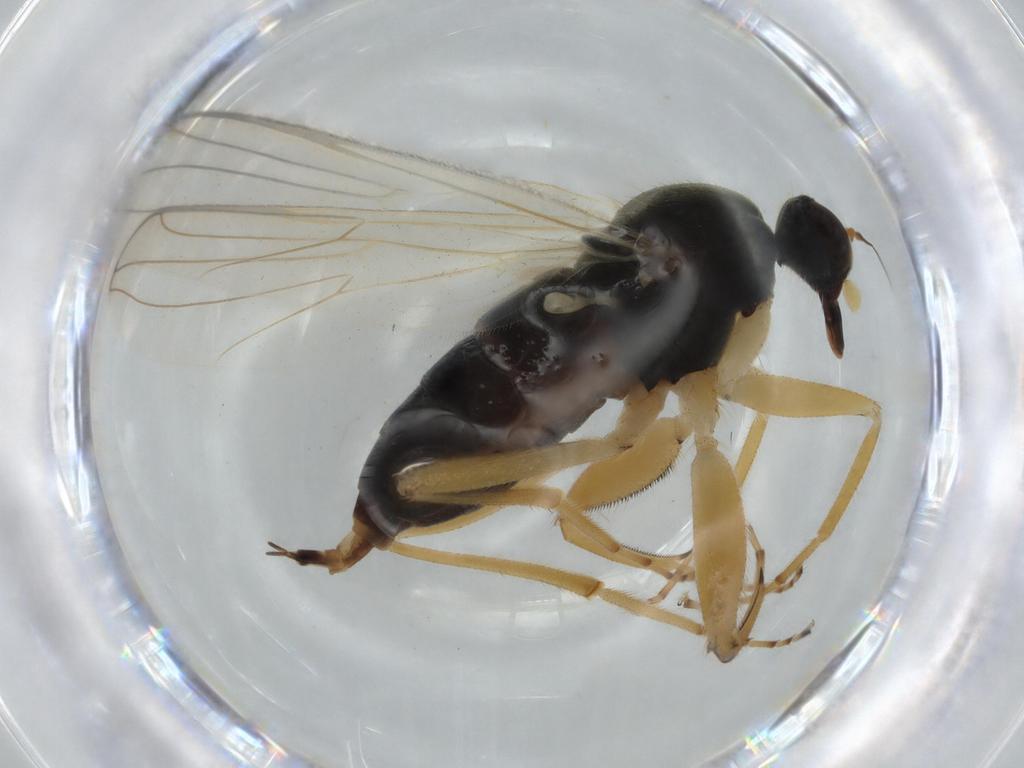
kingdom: Animalia
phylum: Arthropoda
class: Insecta
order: Diptera
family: Hybotidae
